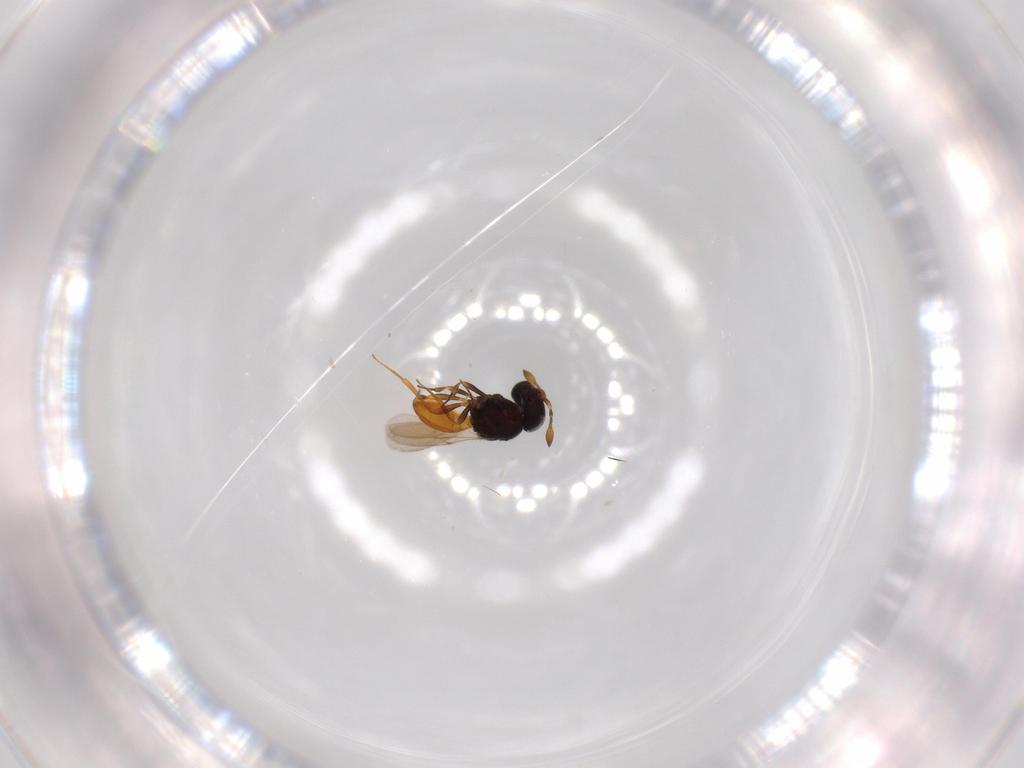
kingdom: Animalia
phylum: Arthropoda
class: Insecta
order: Hymenoptera
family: Scelionidae
